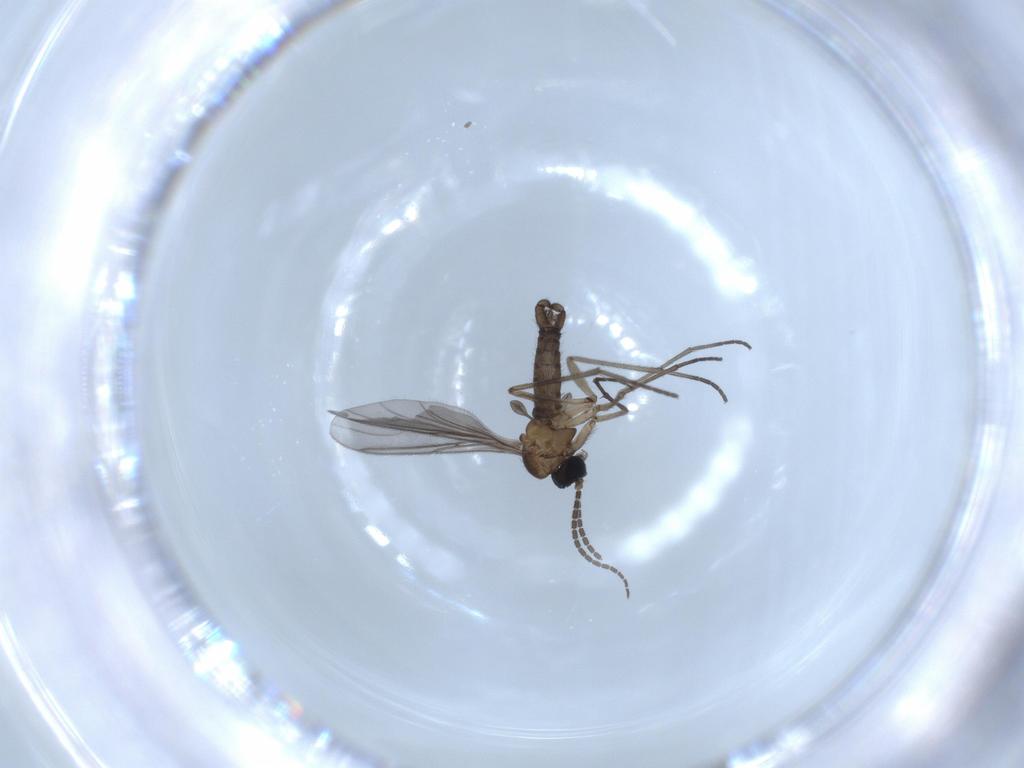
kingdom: Animalia
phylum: Arthropoda
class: Insecta
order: Diptera
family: Sciaridae
